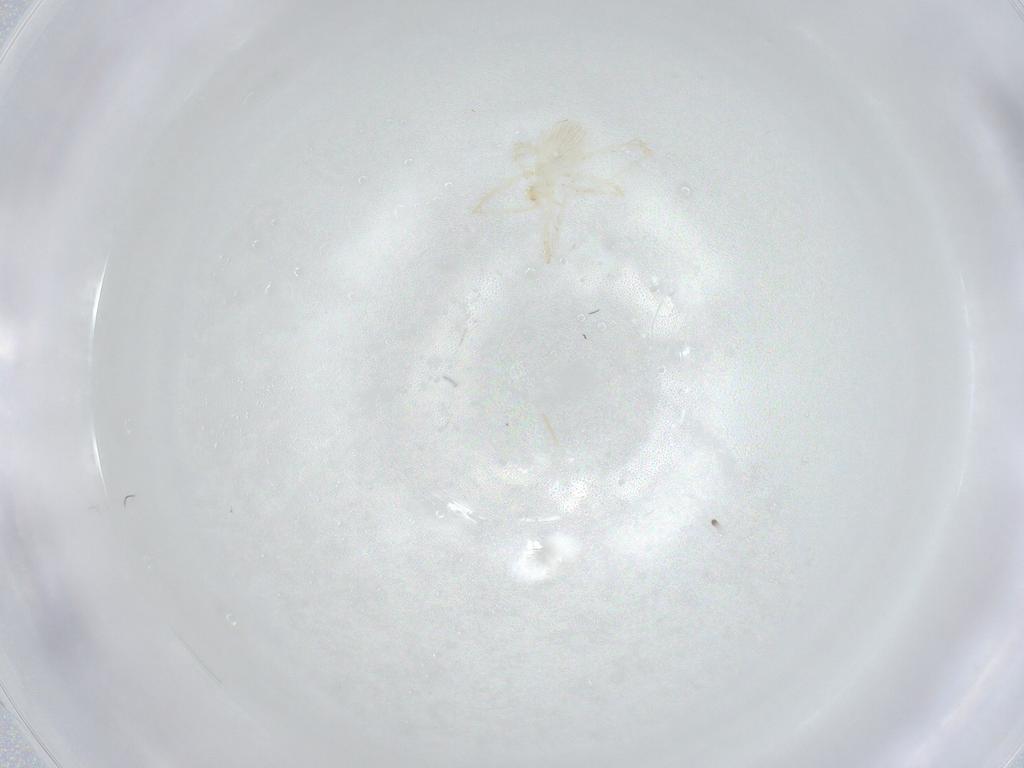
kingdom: Animalia
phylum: Arthropoda
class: Arachnida
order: Trombidiformes
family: Erythraeidae
